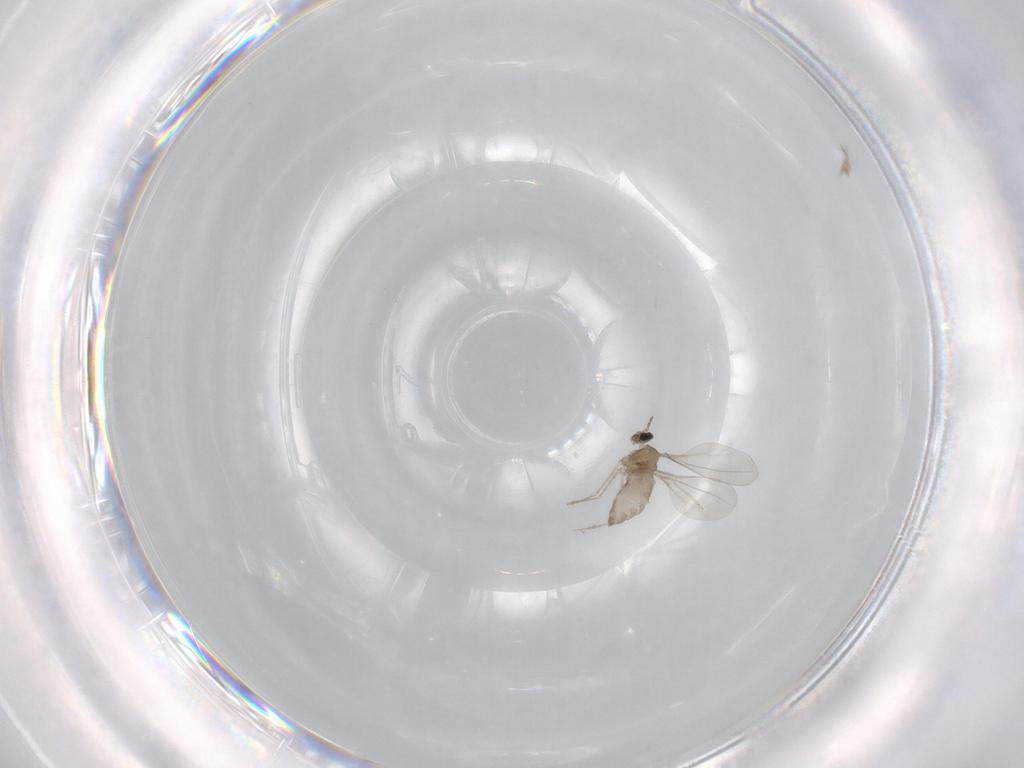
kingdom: Animalia
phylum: Arthropoda
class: Insecta
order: Diptera
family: Cecidomyiidae
